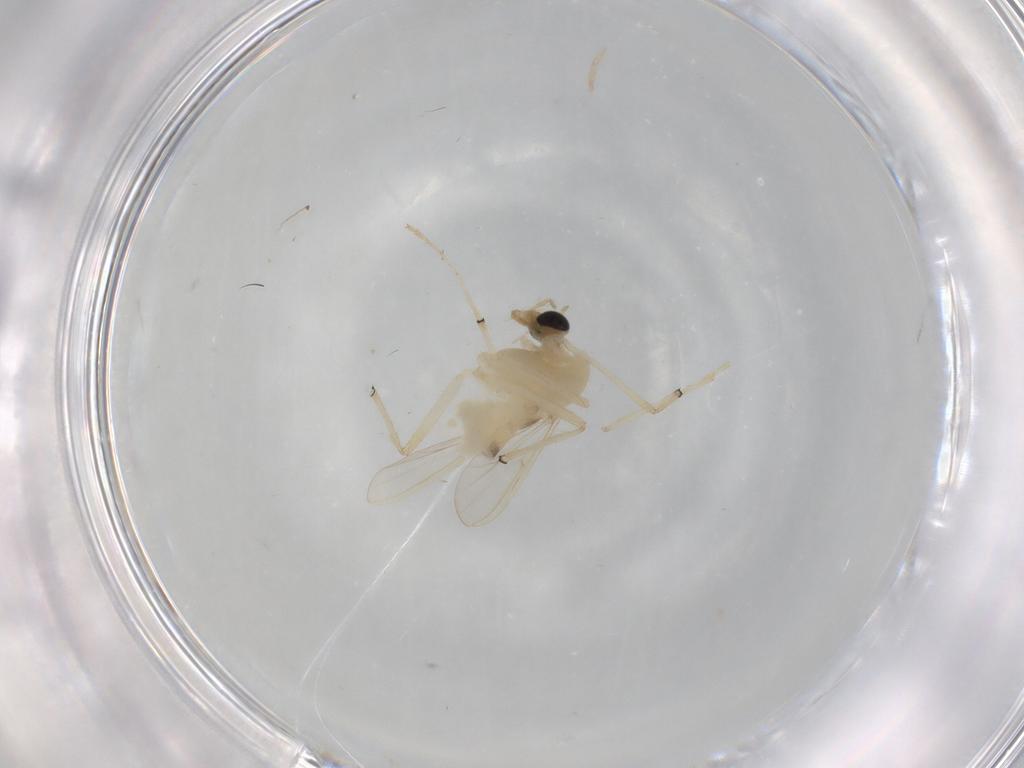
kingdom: Animalia
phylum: Arthropoda
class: Insecta
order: Diptera
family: Chironomidae
